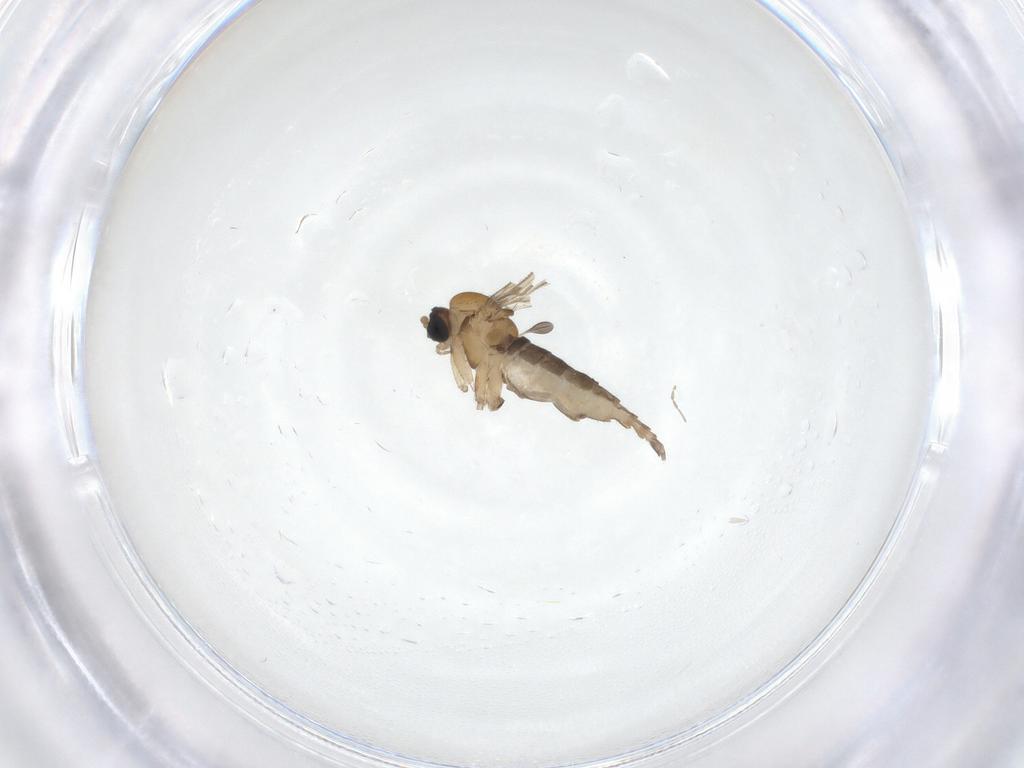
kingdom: Animalia
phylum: Arthropoda
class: Insecta
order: Diptera
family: Sciaridae
